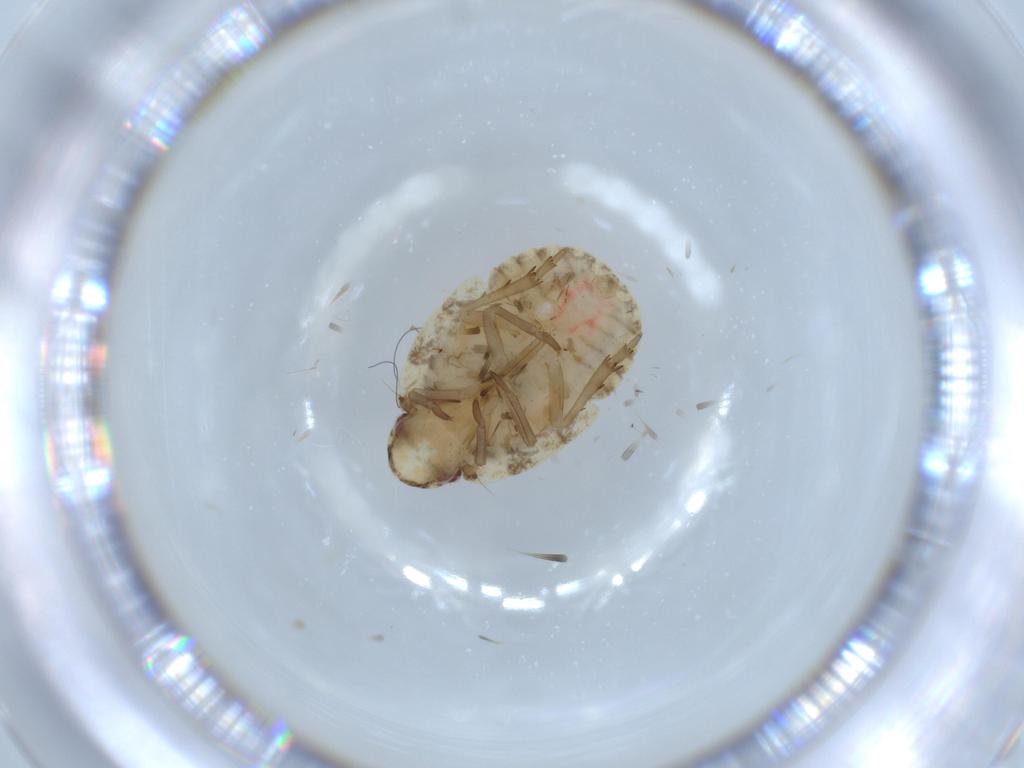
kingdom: Animalia
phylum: Arthropoda
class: Insecta
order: Hemiptera
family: Flatidae
